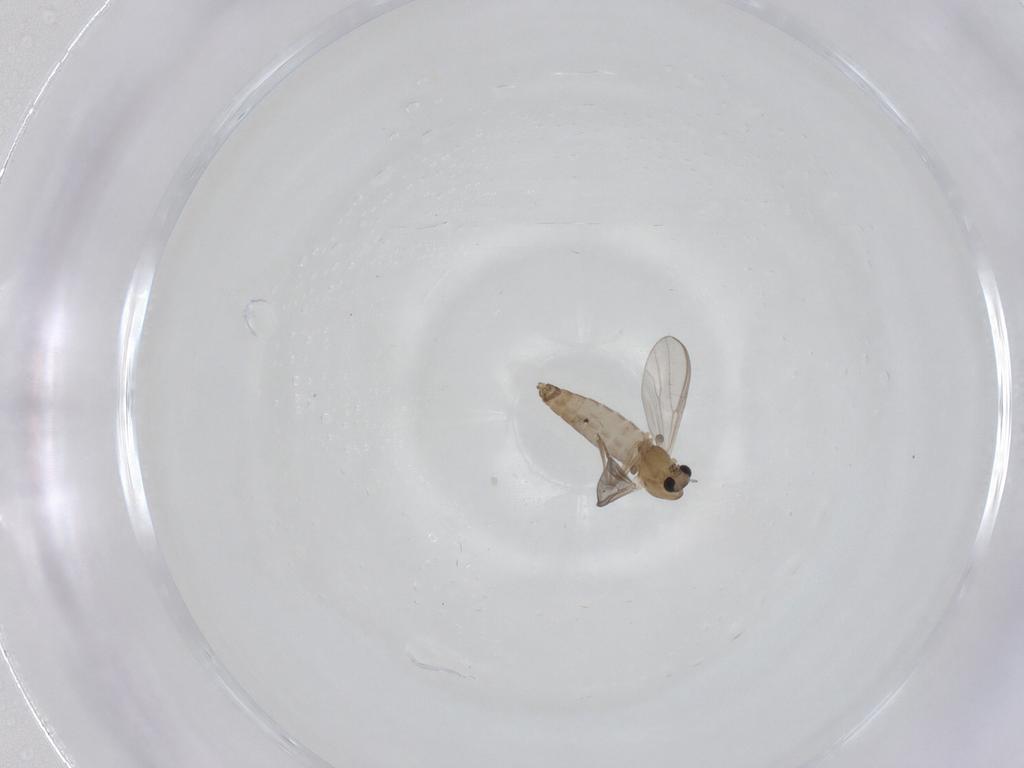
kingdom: Animalia
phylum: Arthropoda
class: Insecta
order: Diptera
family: Chironomidae
